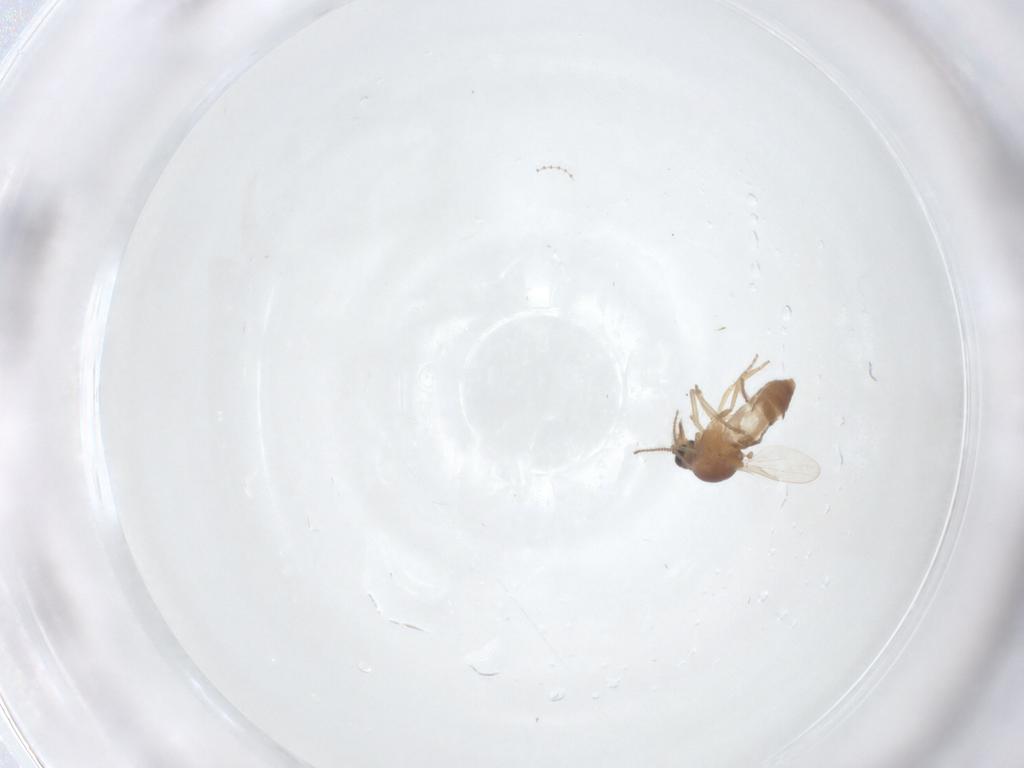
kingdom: Animalia
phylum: Arthropoda
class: Insecta
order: Diptera
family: Ceratopogonidae
